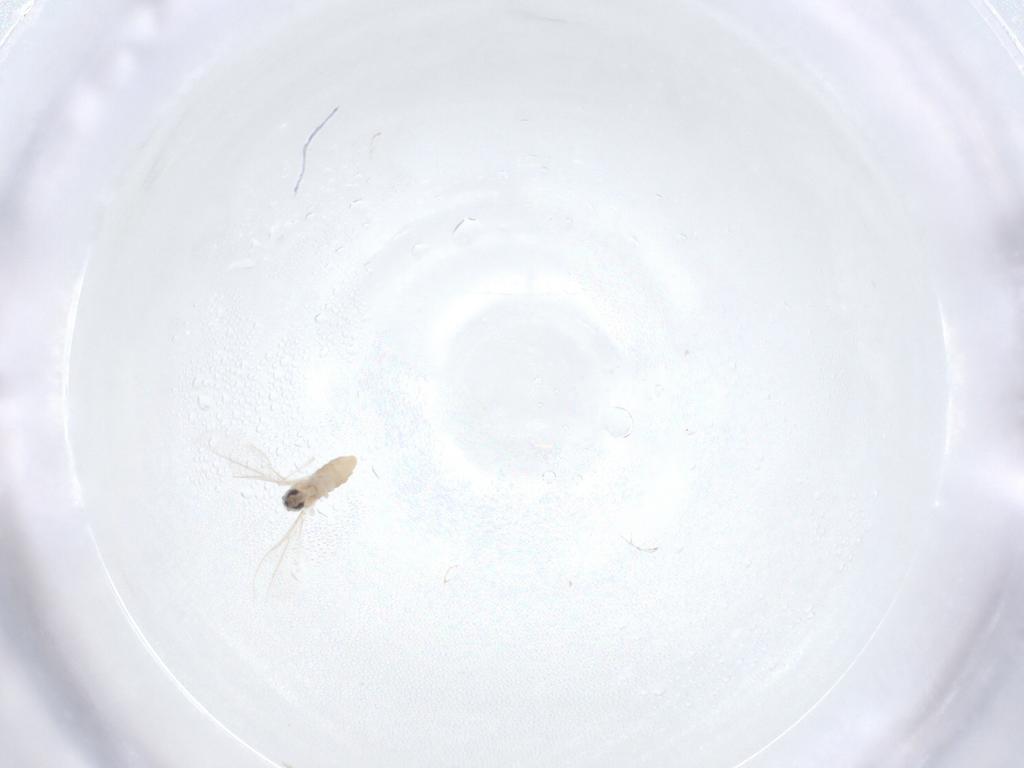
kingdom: Animalia
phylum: Arthropoda
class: Insecta
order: Diptera
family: Cecidomyiidae
